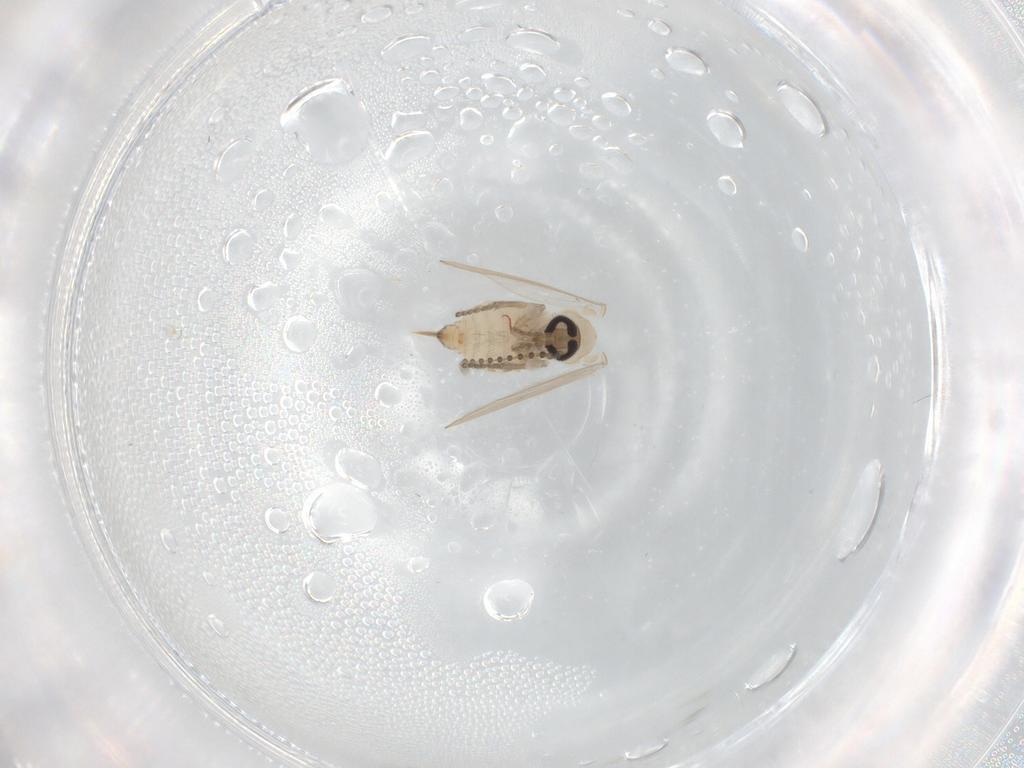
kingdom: Animalia
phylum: Arthropoda
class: Insecta
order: Diptera
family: Psychodidae
